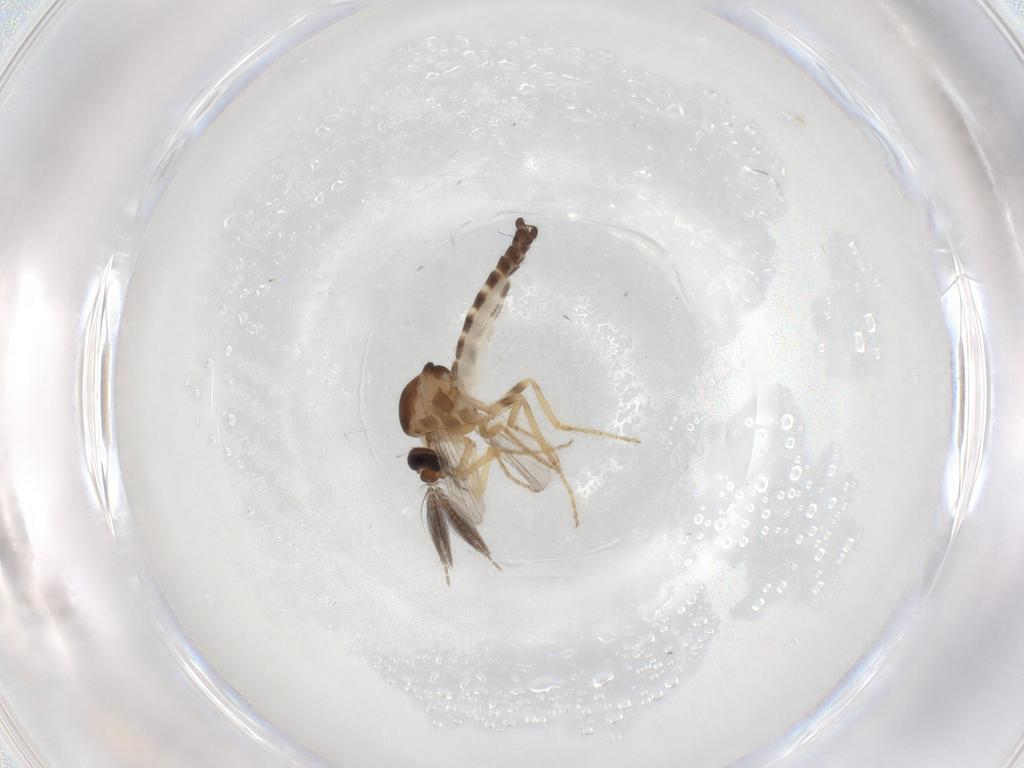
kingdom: Animalia
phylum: Arthropoda
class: Insecta
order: Diptera
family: Ceratopogonidae
